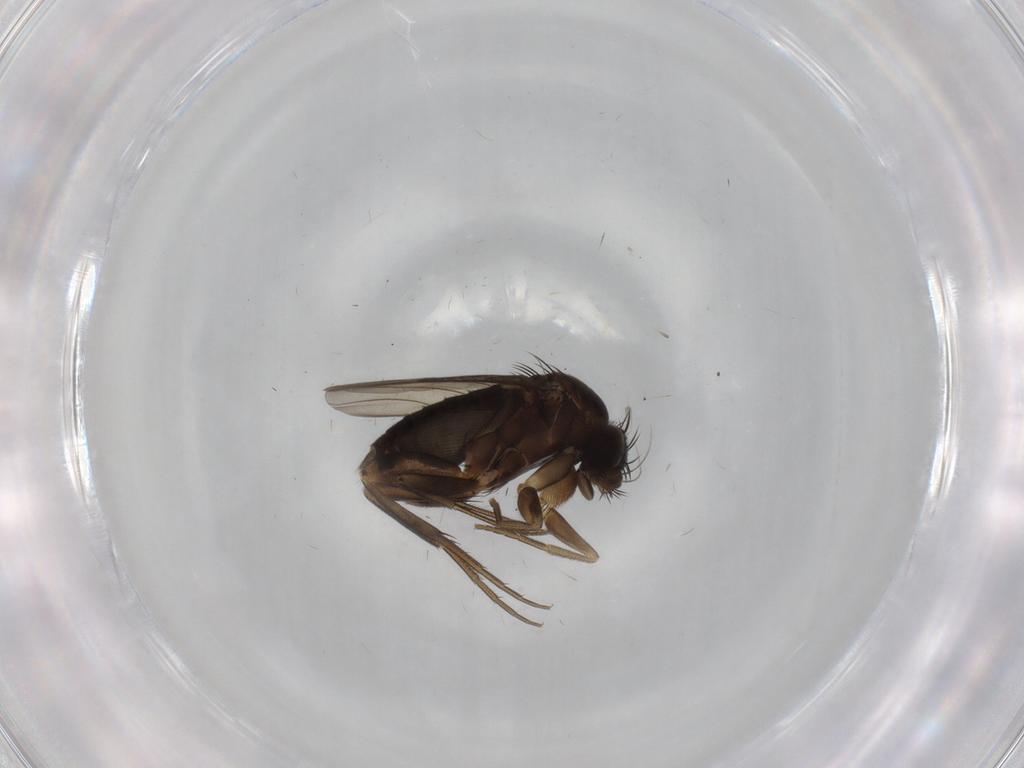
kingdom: Animalia
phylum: Arthropoda
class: Insecta
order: Diptera
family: Phoridae
